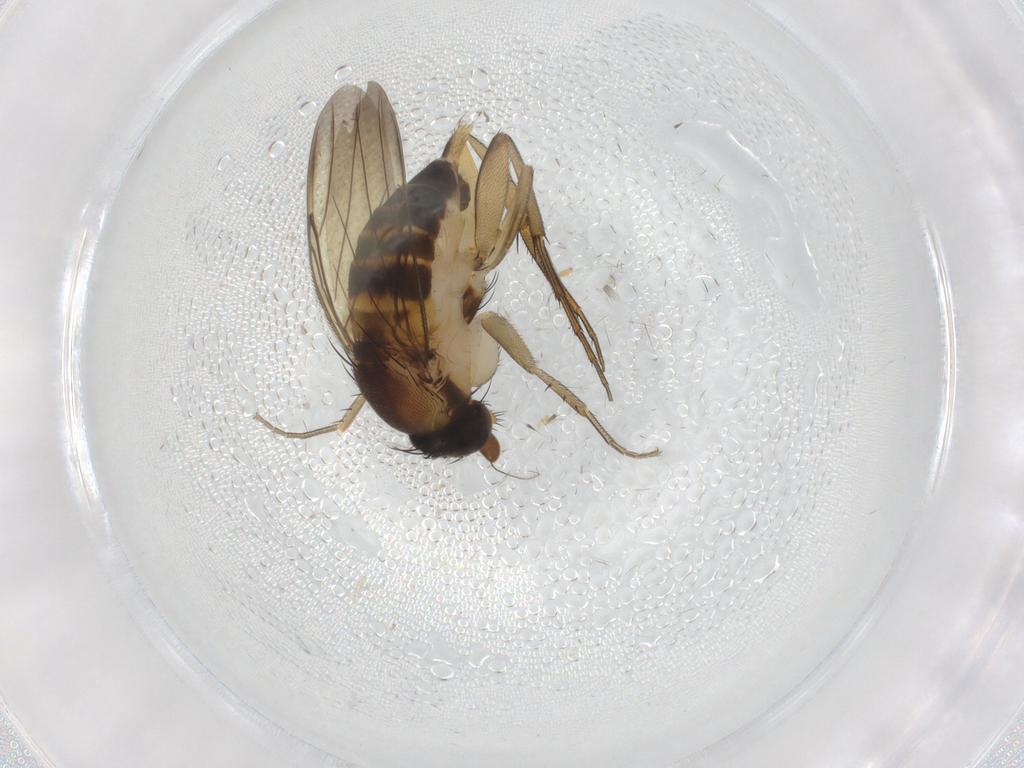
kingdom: Animalia
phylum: Arthropoda
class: Insecta
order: Diptera
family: Phoridae
